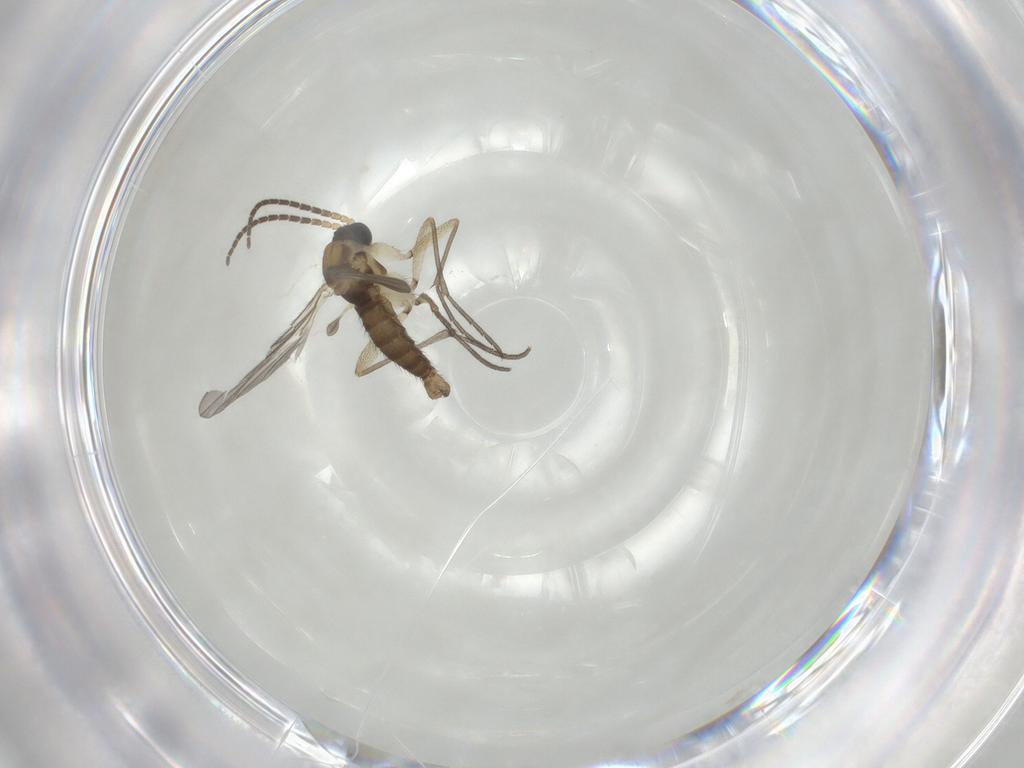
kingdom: Animalia
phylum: Arthropoda
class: Insecta
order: Diptera
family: Sciaridae
